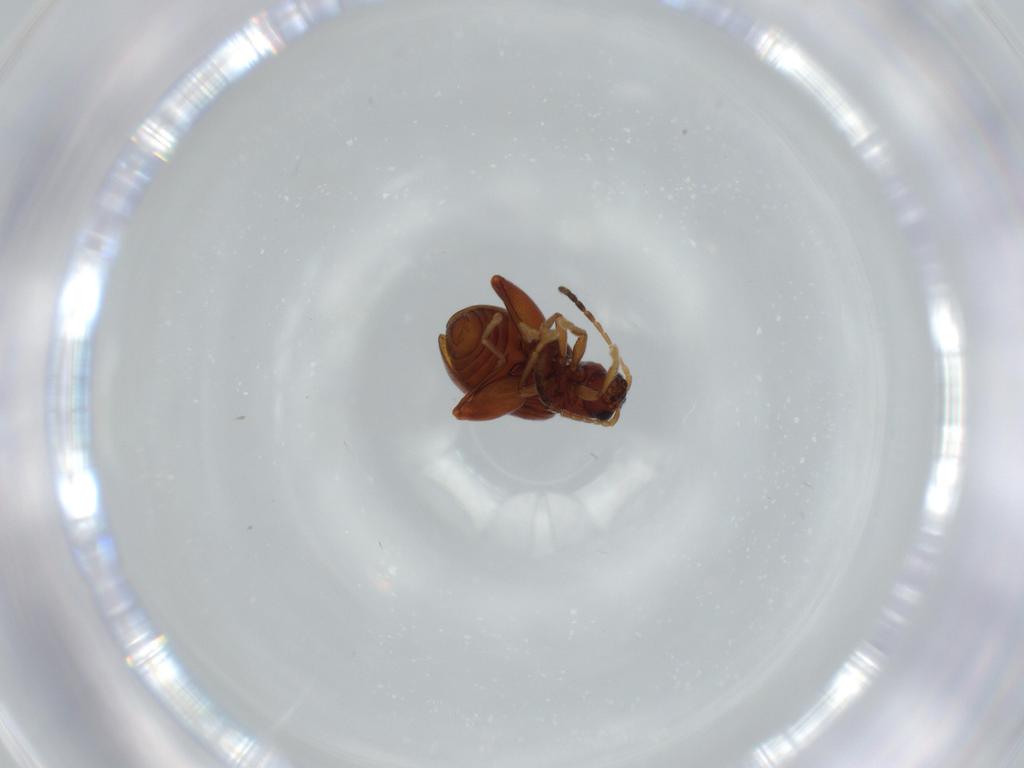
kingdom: Animalia
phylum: Arthropoda
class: Insecta
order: Coleoptera
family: Chrysomelidae
